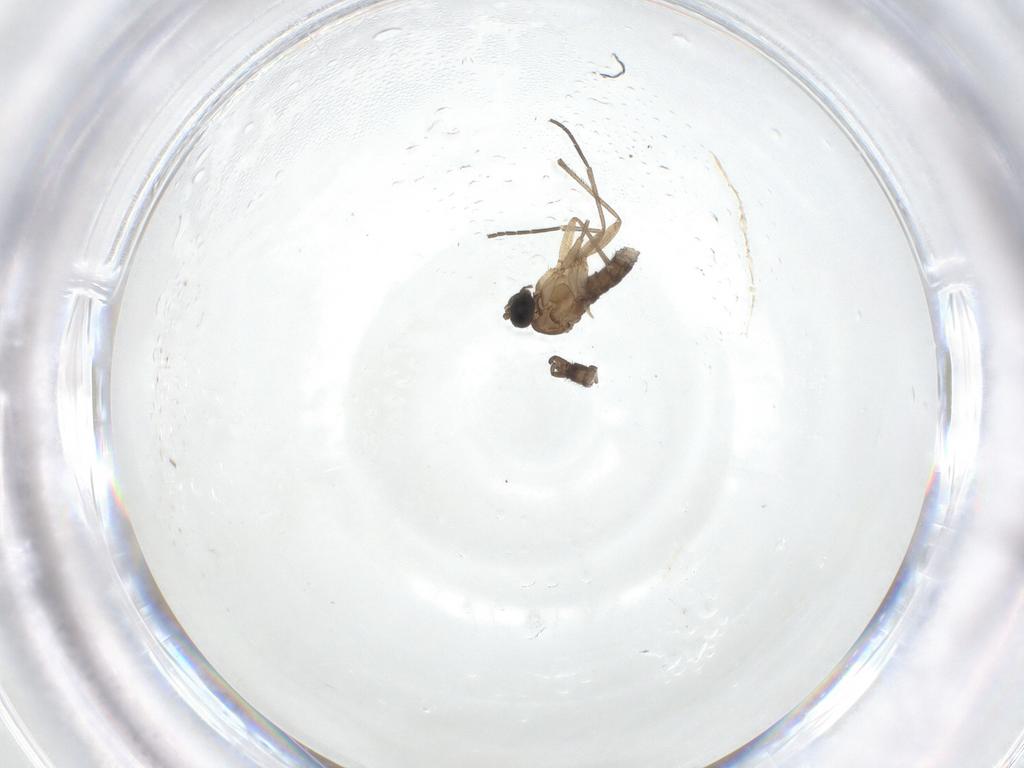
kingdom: Animalia
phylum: Arthropoda
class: Insecta
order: Diptera
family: Sciaridae
